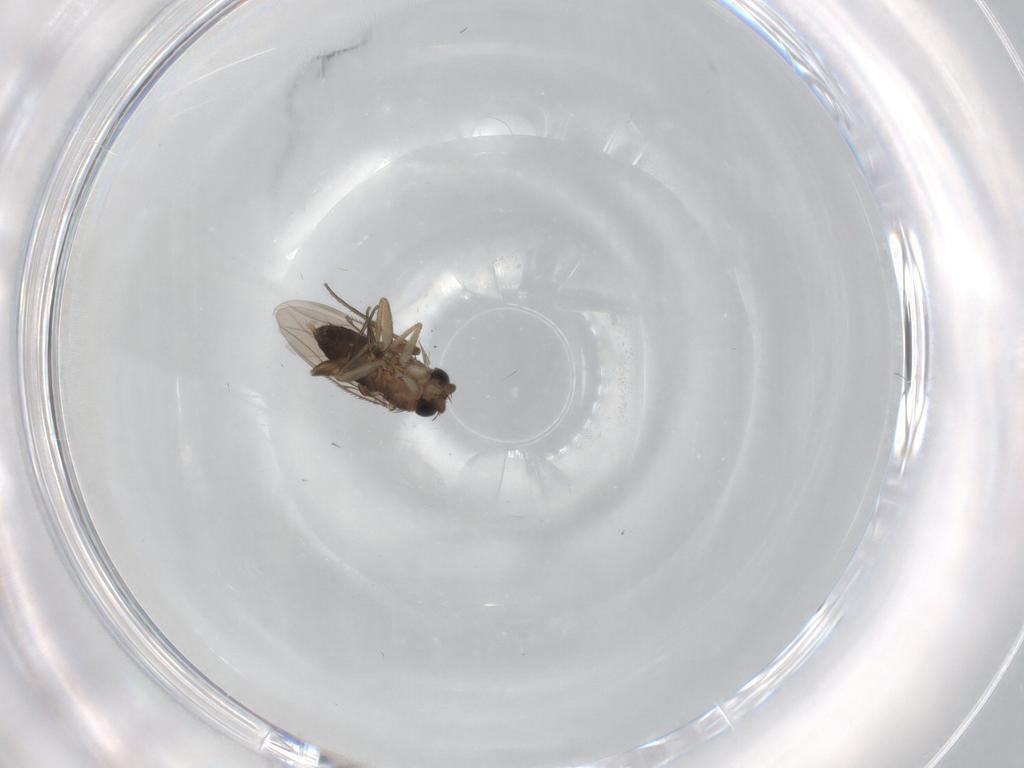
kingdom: Animalia
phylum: Arthropoda
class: Insecta
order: Diptera
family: Phoridae
